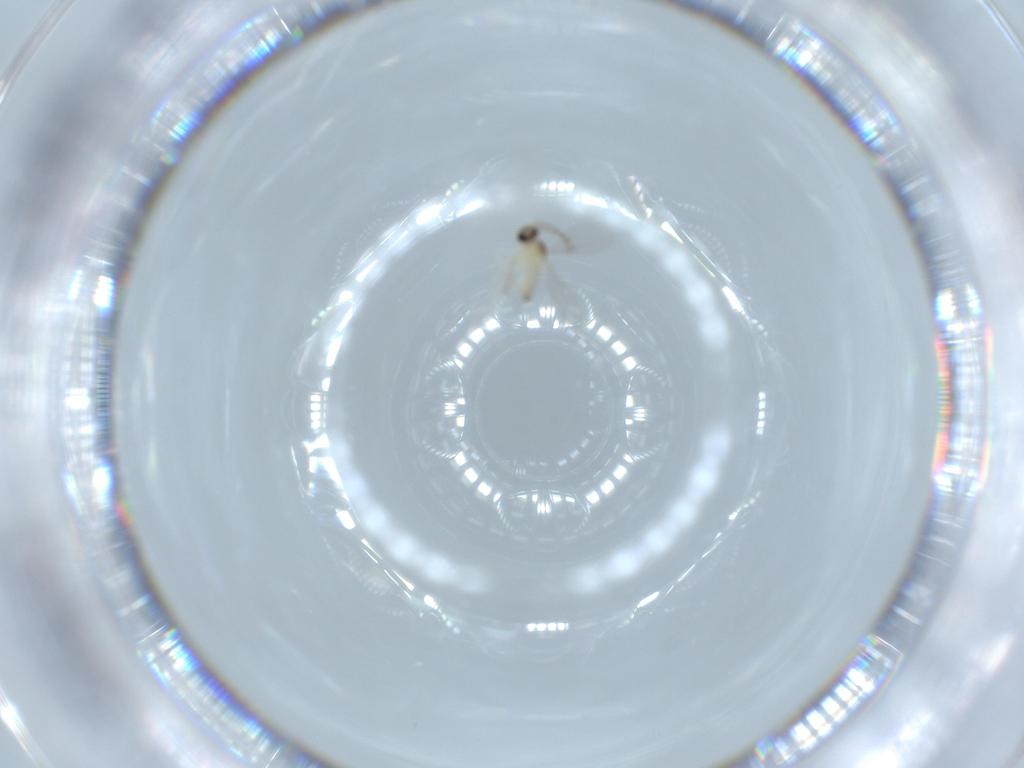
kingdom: Animalia
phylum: Arthropoda
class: Insecta
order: Diptera
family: Cecidomyiidae
